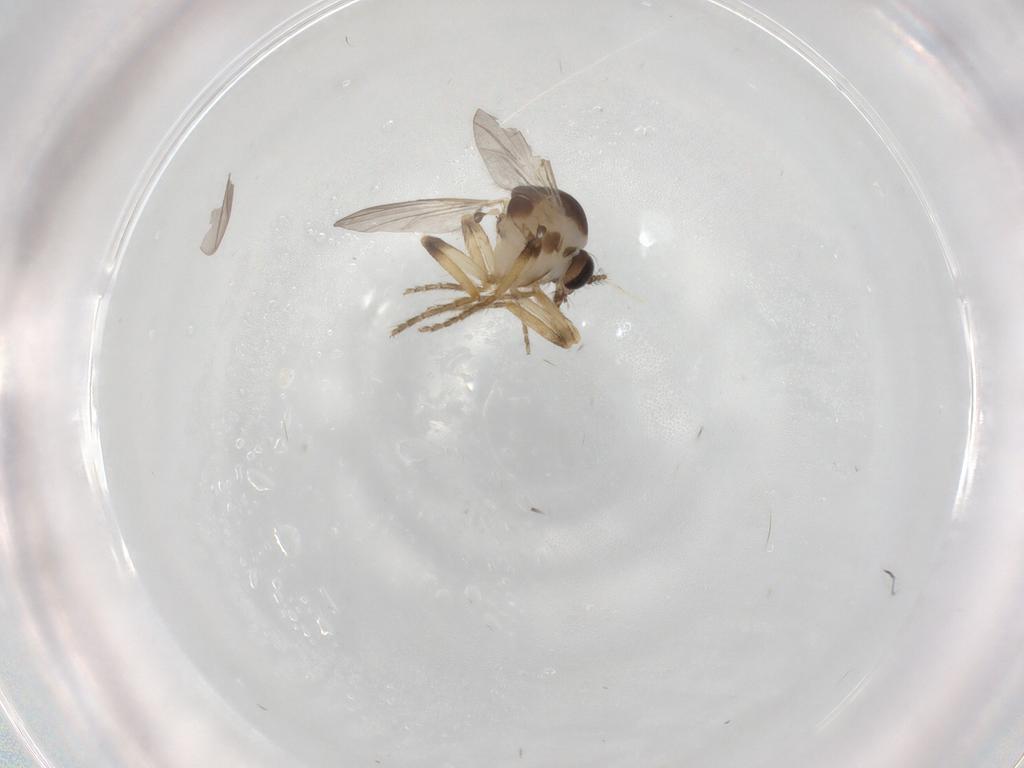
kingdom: Animalia
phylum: Arthropoda
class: Insecta
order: Diptera
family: Ceratopogonidae
